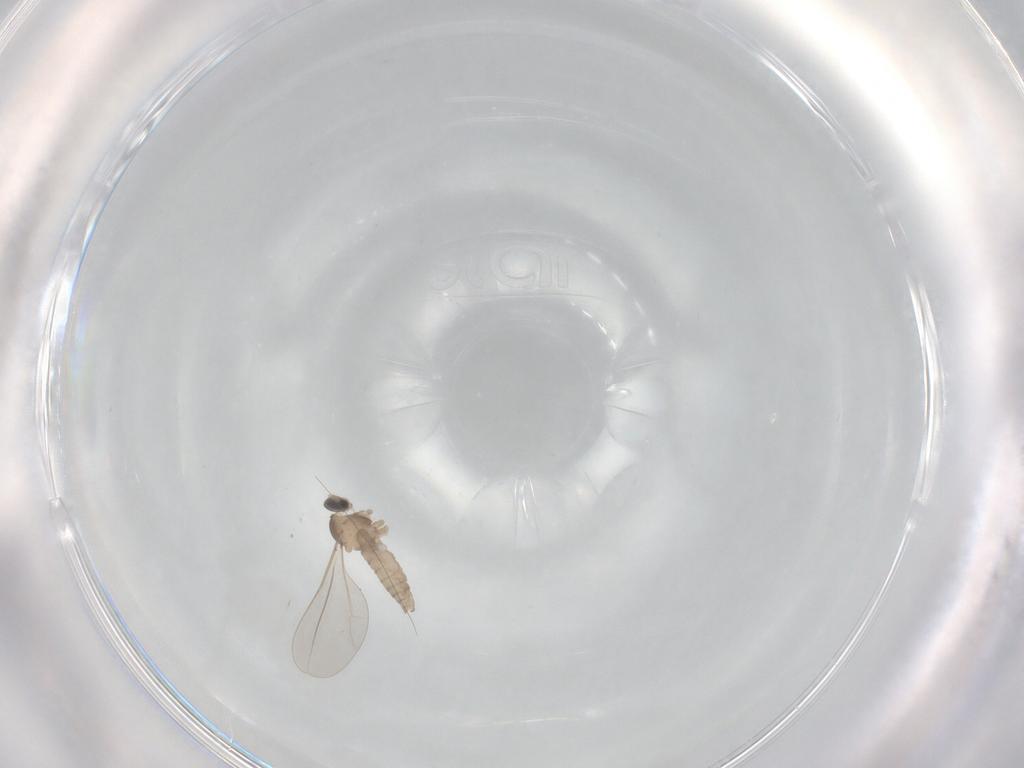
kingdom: Animalia
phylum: Arthropoda
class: Insecta
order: Diptera
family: Cecidomyiidae
